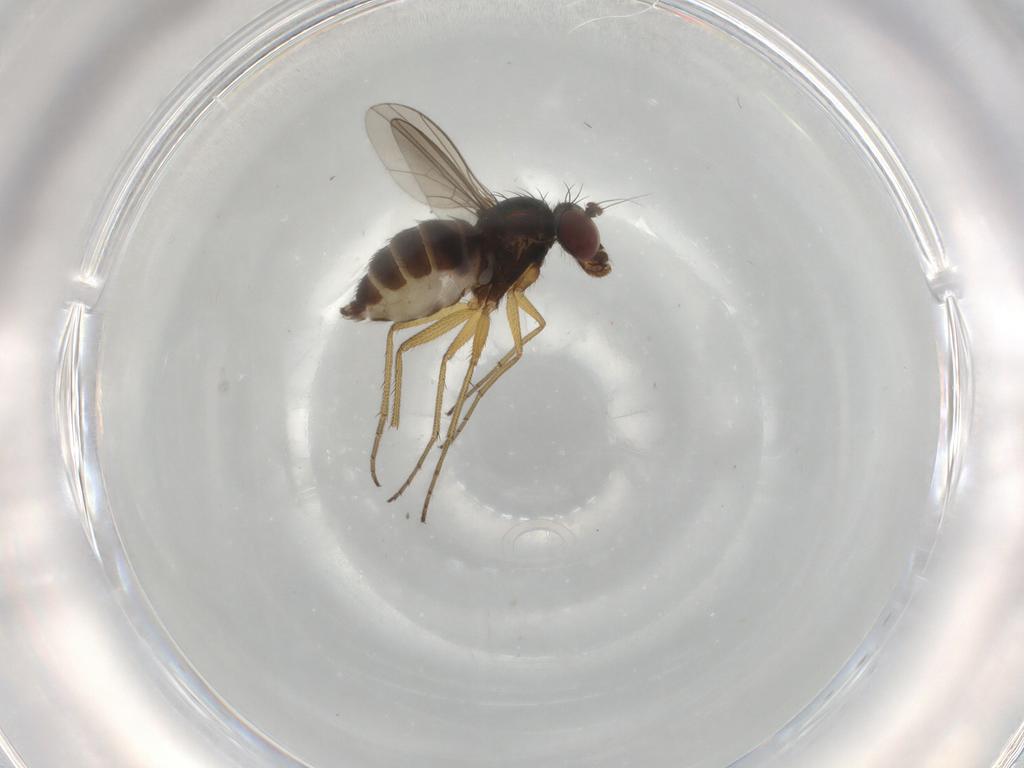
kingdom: Animalia
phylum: Arthropoda
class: Insecta
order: Diptera
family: Dolichopodidae
